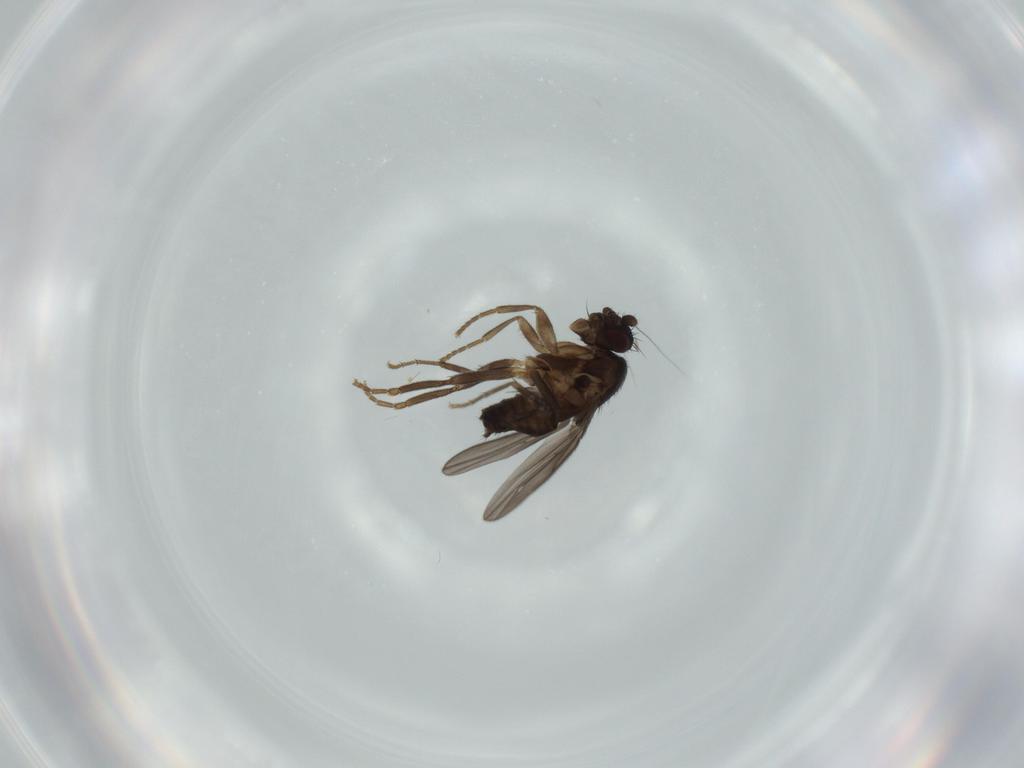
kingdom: Animalia
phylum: Arthropoda
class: Insecta
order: Diptera
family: Sphaeroceridae
